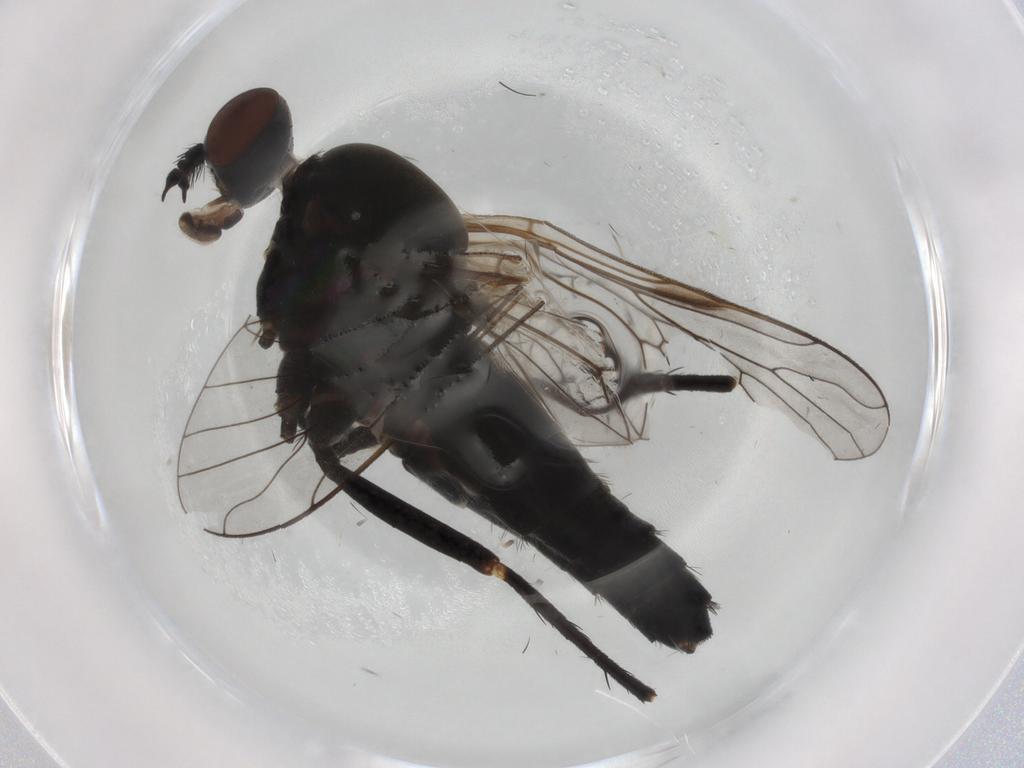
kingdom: Animalia
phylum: Arthropoda
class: Insecta
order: Diptera
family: Therevidae
